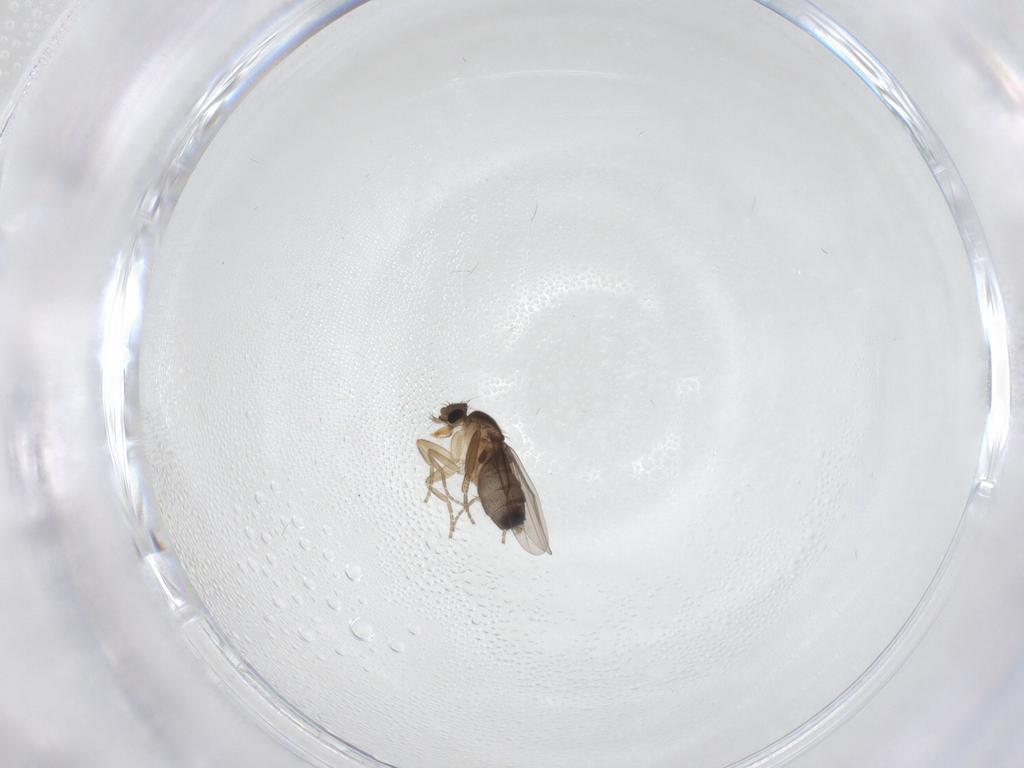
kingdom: Animalia
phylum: Arthropoda
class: Insecta
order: Diptera
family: Phoridae
